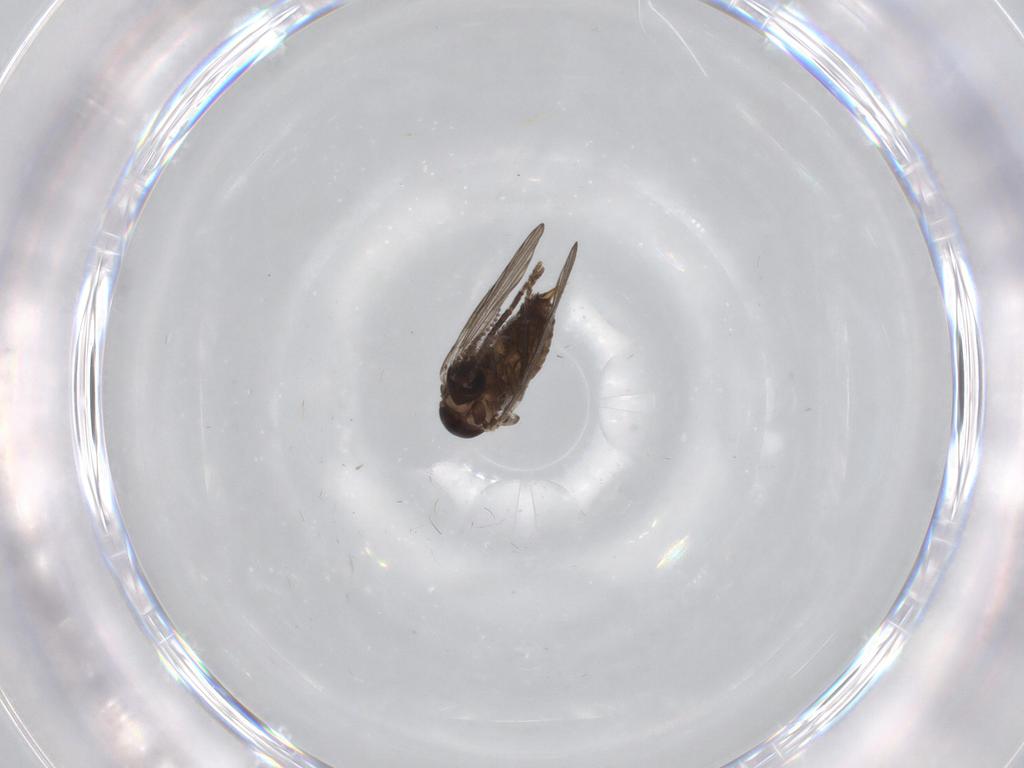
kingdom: Animalia
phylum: Arthropoda
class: Insecta
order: Diptera
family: Psychodidae
